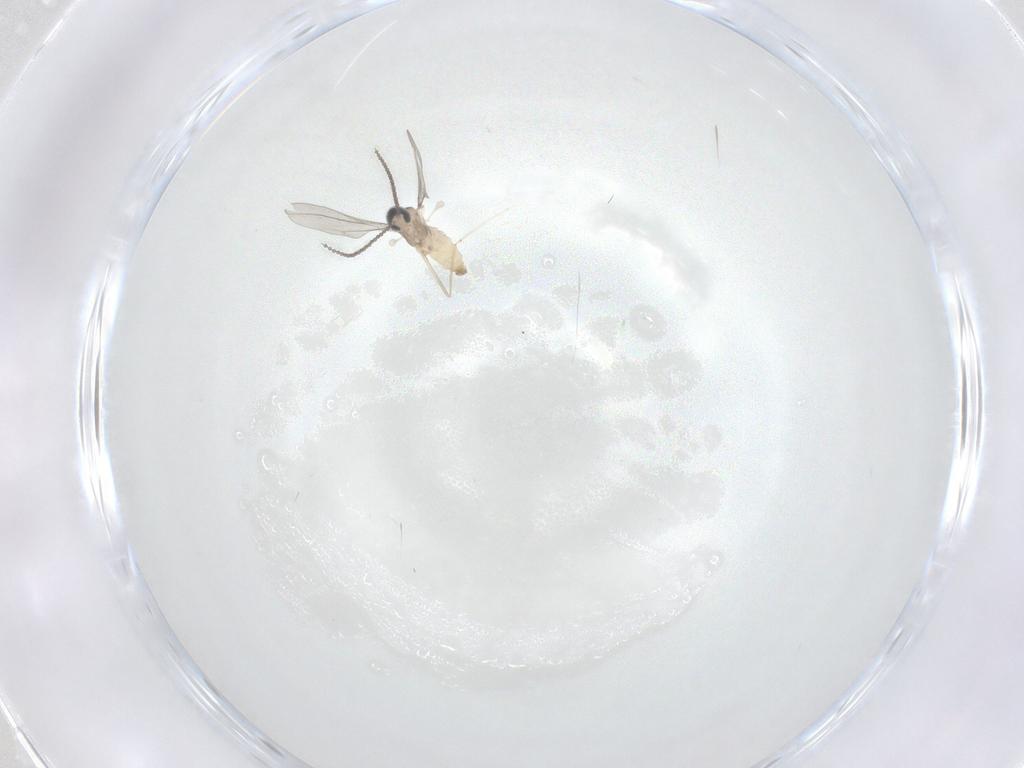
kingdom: Animalia
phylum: Arthropoda
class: Insecta
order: Diptera
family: Cecidomyiidae
